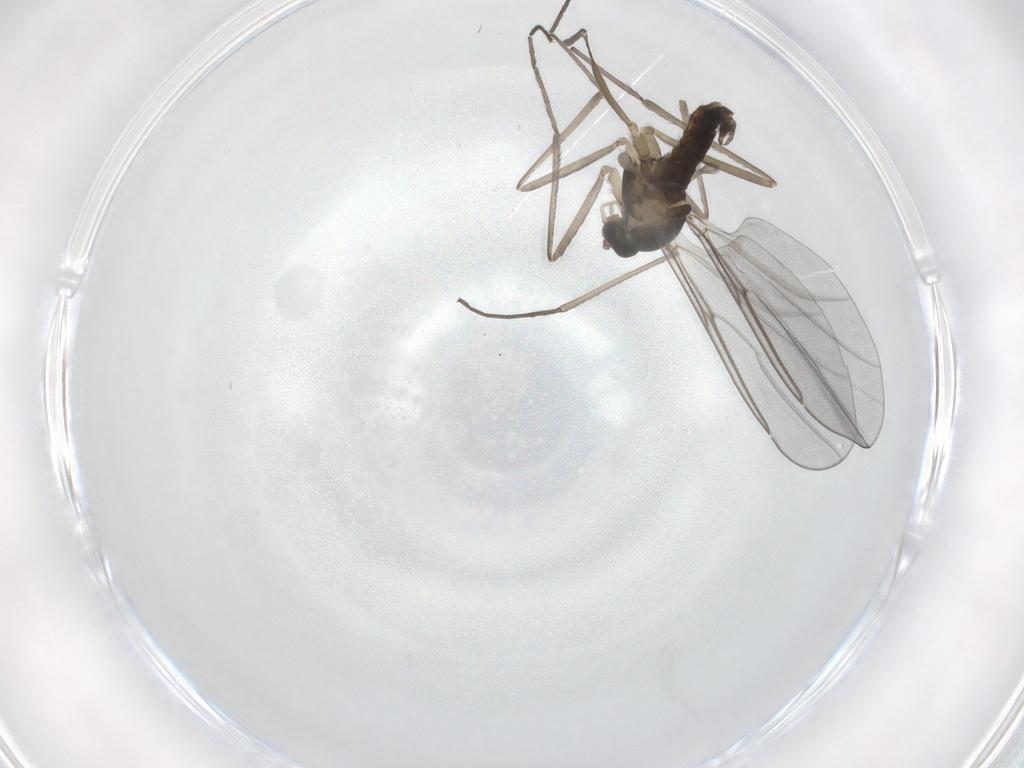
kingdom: Animalia
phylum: Arthropoda
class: Insecta
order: Diptera
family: Cecidomyiidae
